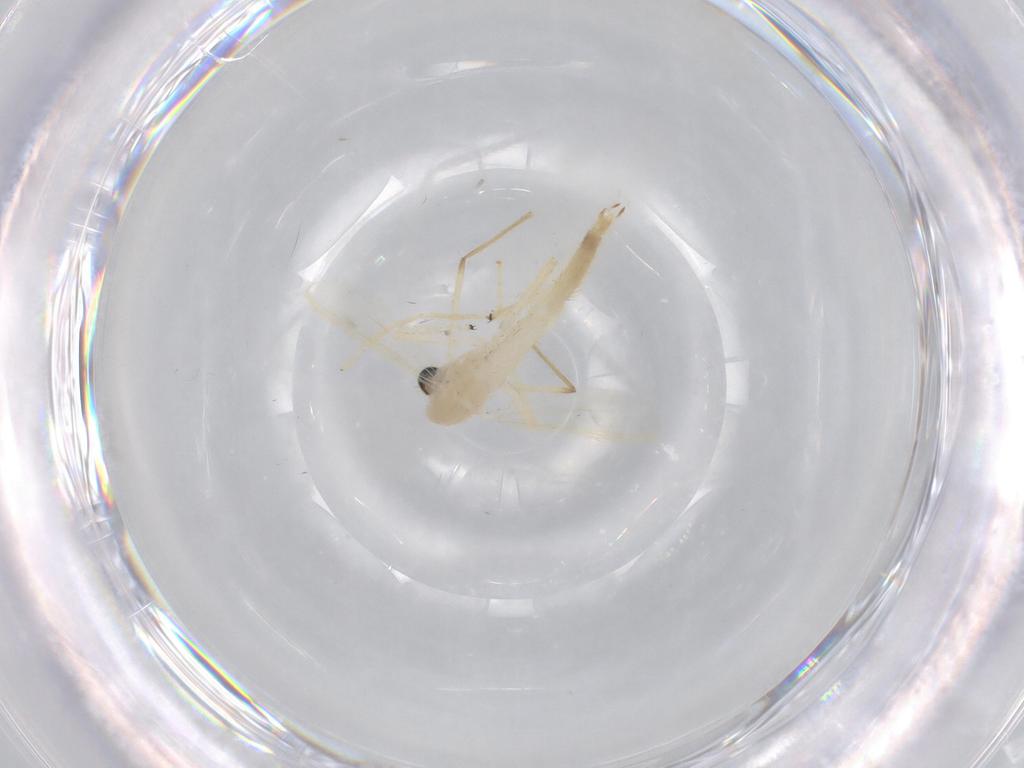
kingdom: Animalia
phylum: Arthropoda
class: Insecta
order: Diptera
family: Chironomidae
